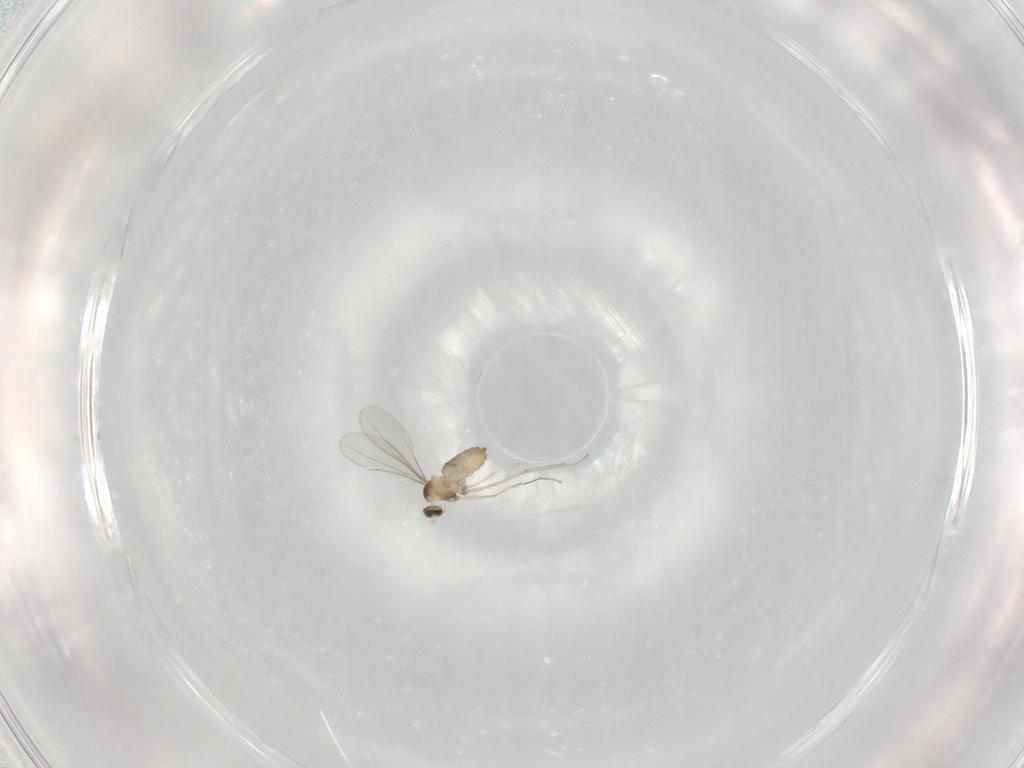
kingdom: Animalia
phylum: Arthropoda
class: Insecta
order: Diptera
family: Cecidomyiidae
